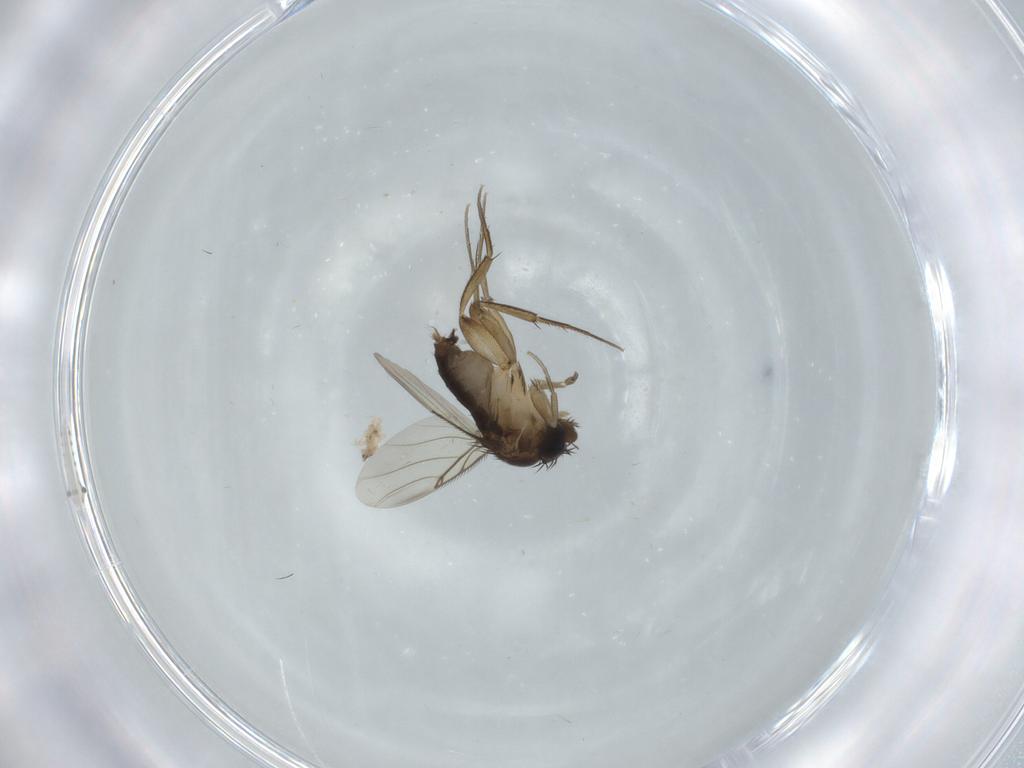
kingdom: Animalia
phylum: Arthropoda
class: Insecta
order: Diptera
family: Phoridae
